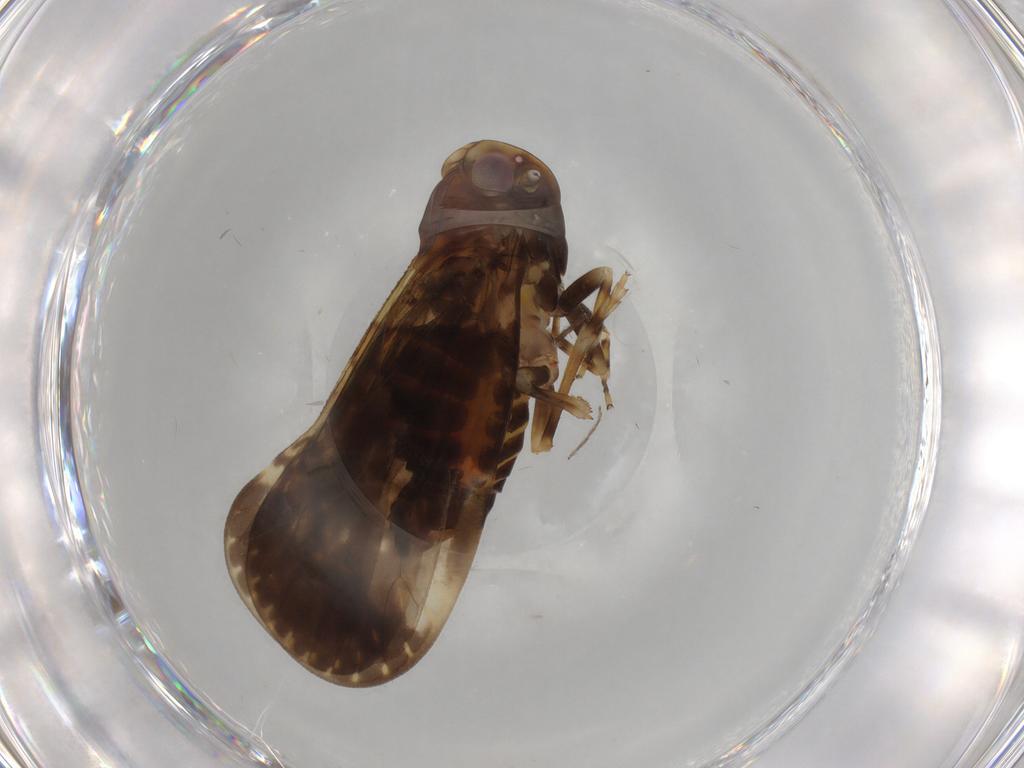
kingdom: Animalia
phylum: Arthropoda
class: Insecta
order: Hemiptera
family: Cixiidae
